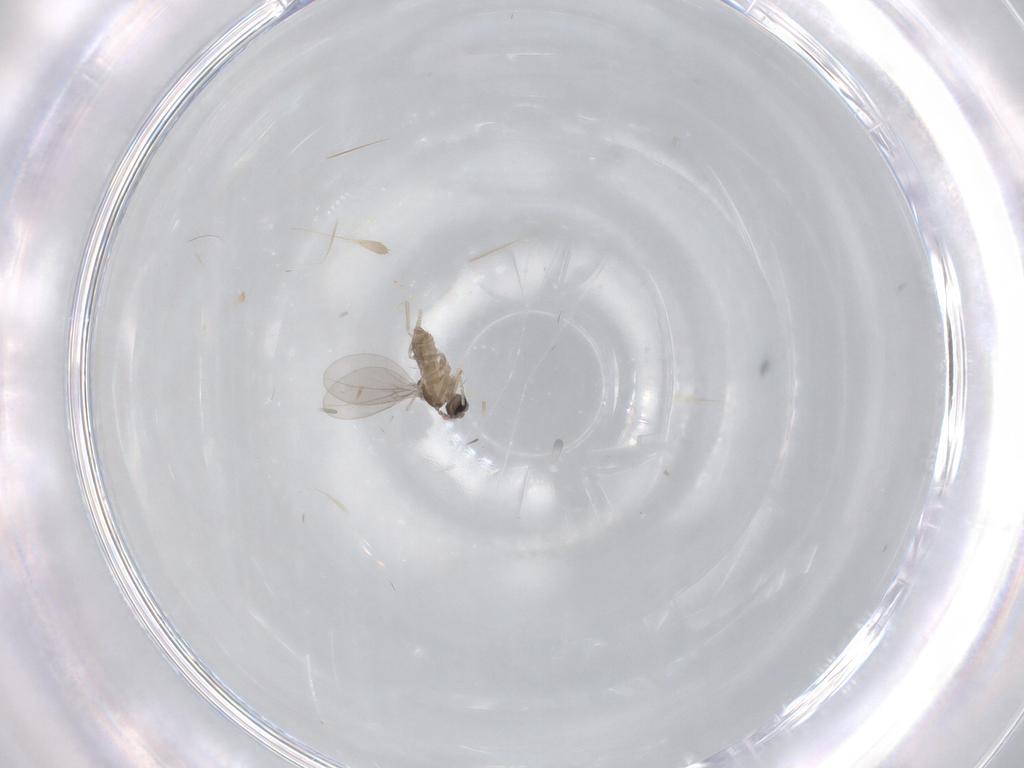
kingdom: Animalia
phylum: Arthropoda
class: Insecta
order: Diptera
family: Cecidomyiidae
